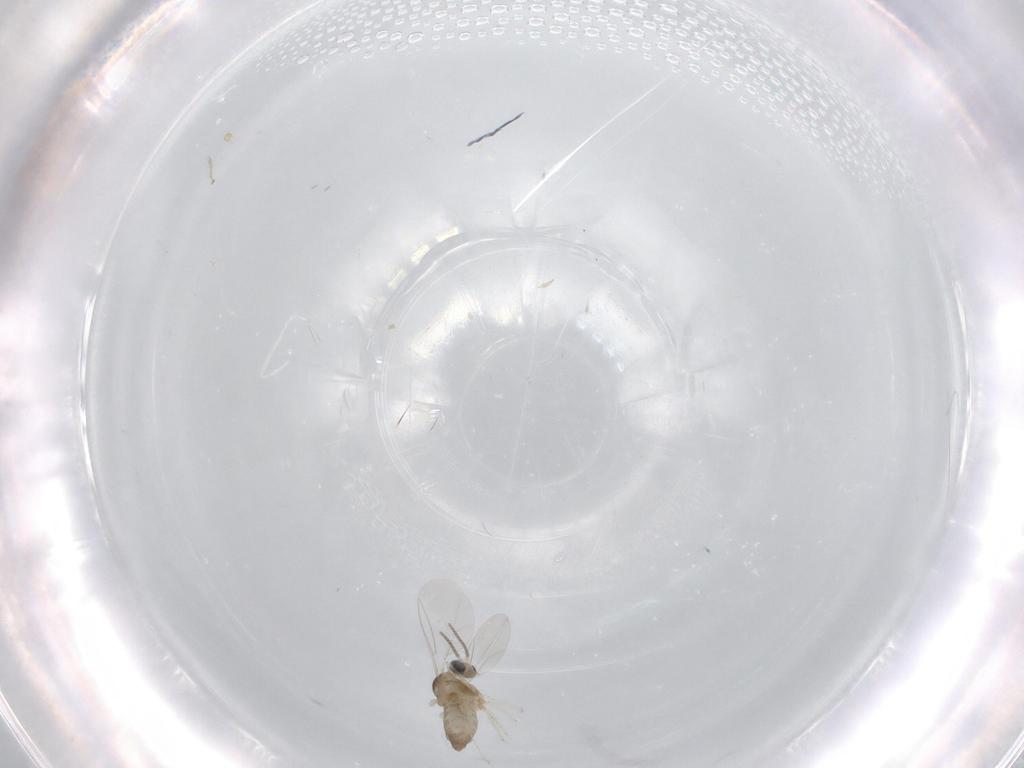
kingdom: Animalia
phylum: Arthropoda
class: Insecta
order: Diptera
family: Cecidomyiidae
